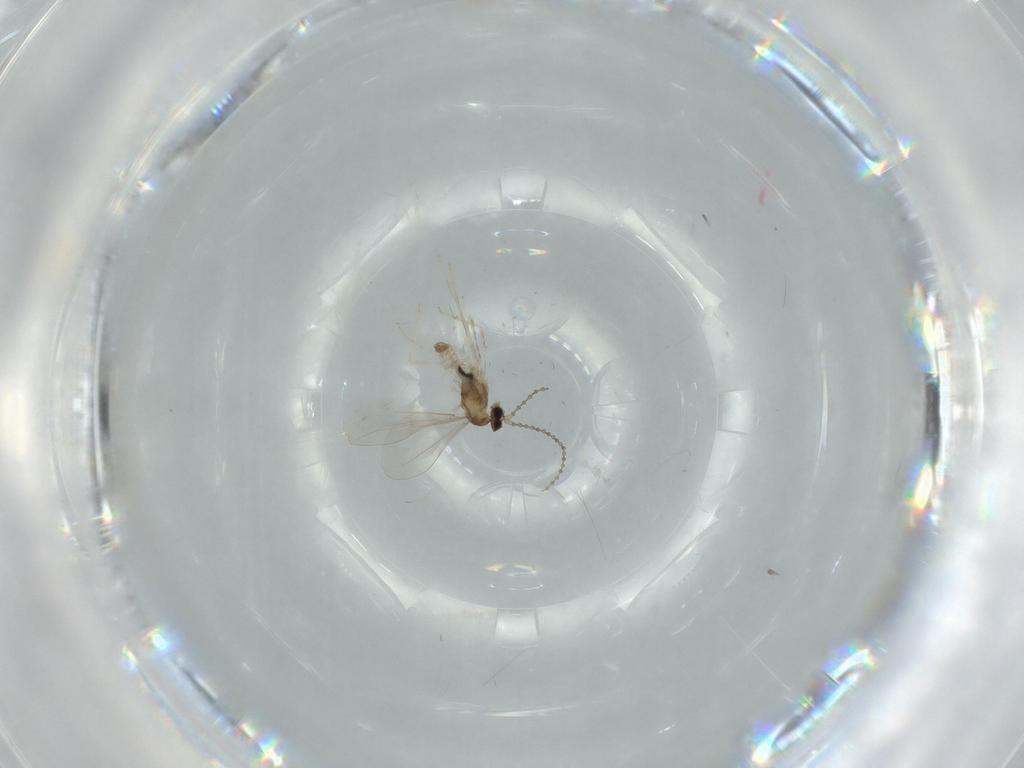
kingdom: Animalia
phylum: Arthropoda
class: Insecta
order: Diptera
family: Cecidomyiidae
